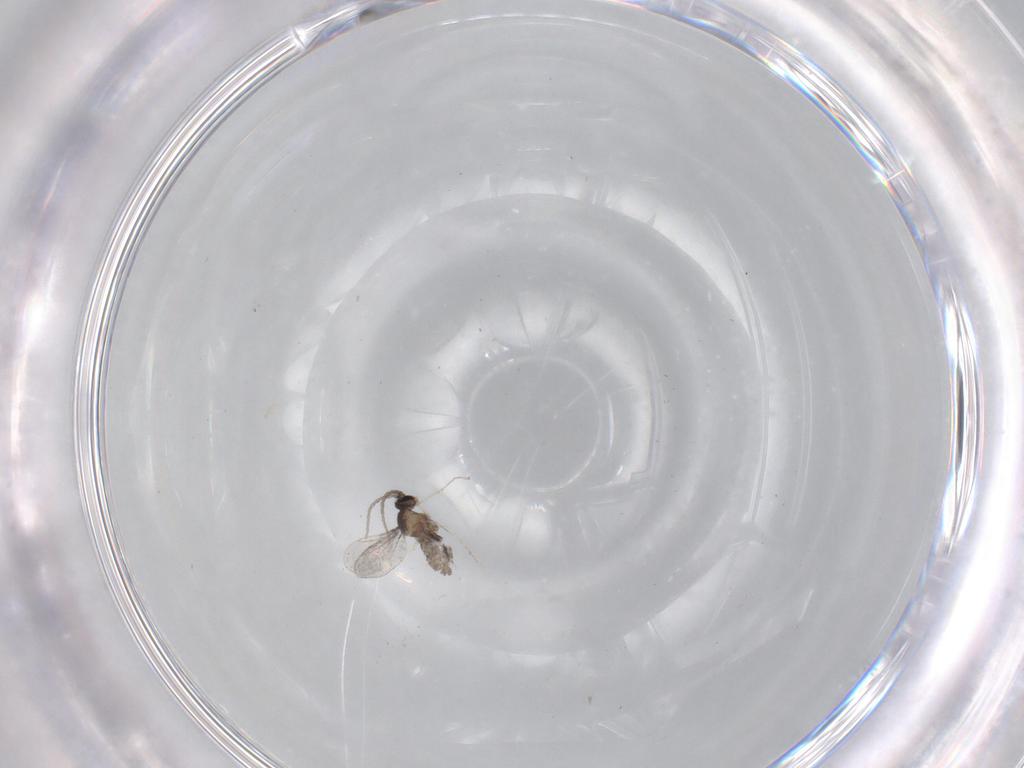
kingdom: Animalia
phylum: Arthropoda
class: Insecta
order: Diptera
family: Cecidomyiidae
